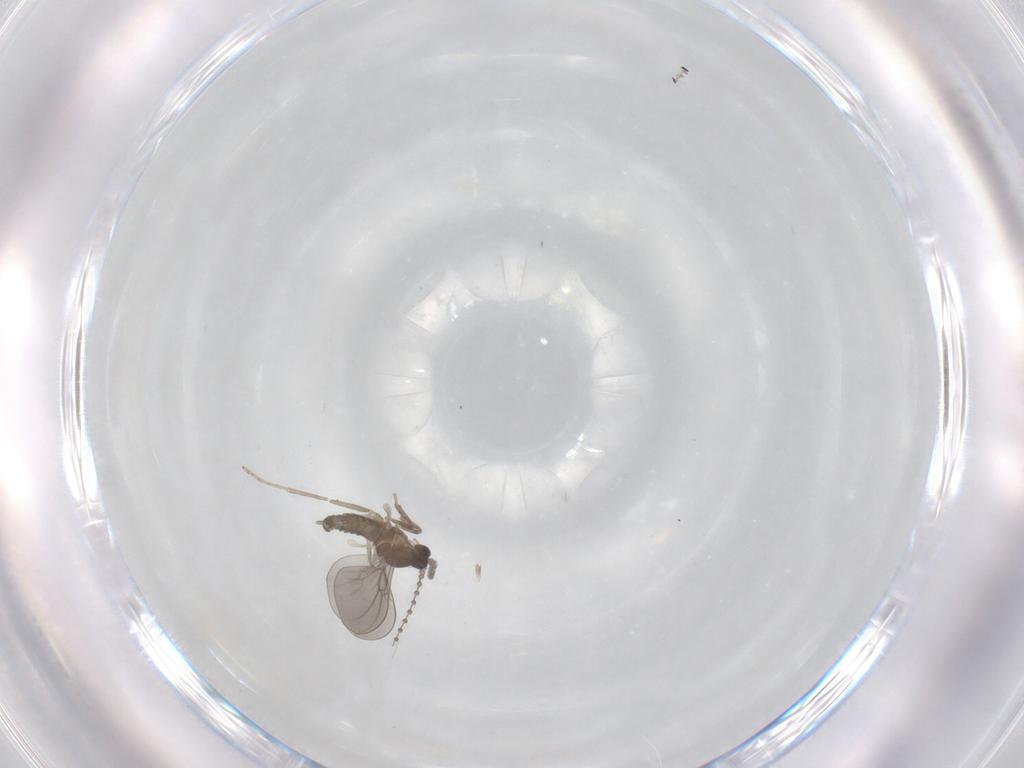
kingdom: Animalia
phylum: Arthropoda
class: Insecta
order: Diptera
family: Cecidomyiidae
